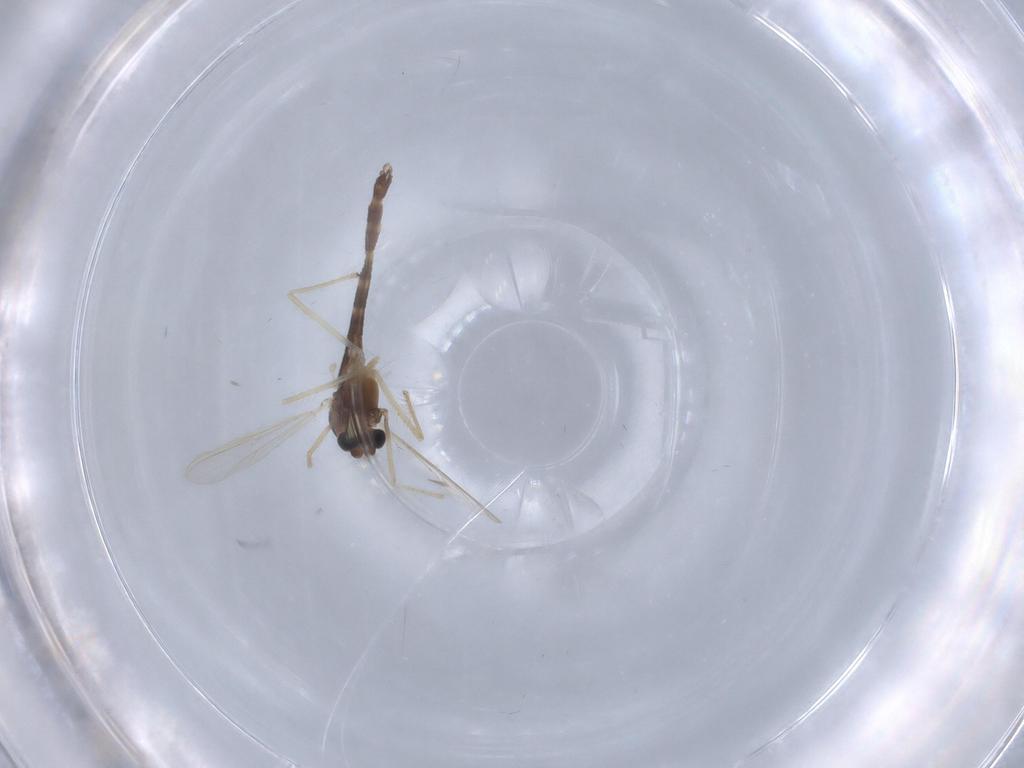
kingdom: Animalia
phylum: Arthropoda
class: Insecta
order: Diptera
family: Chironomidae
